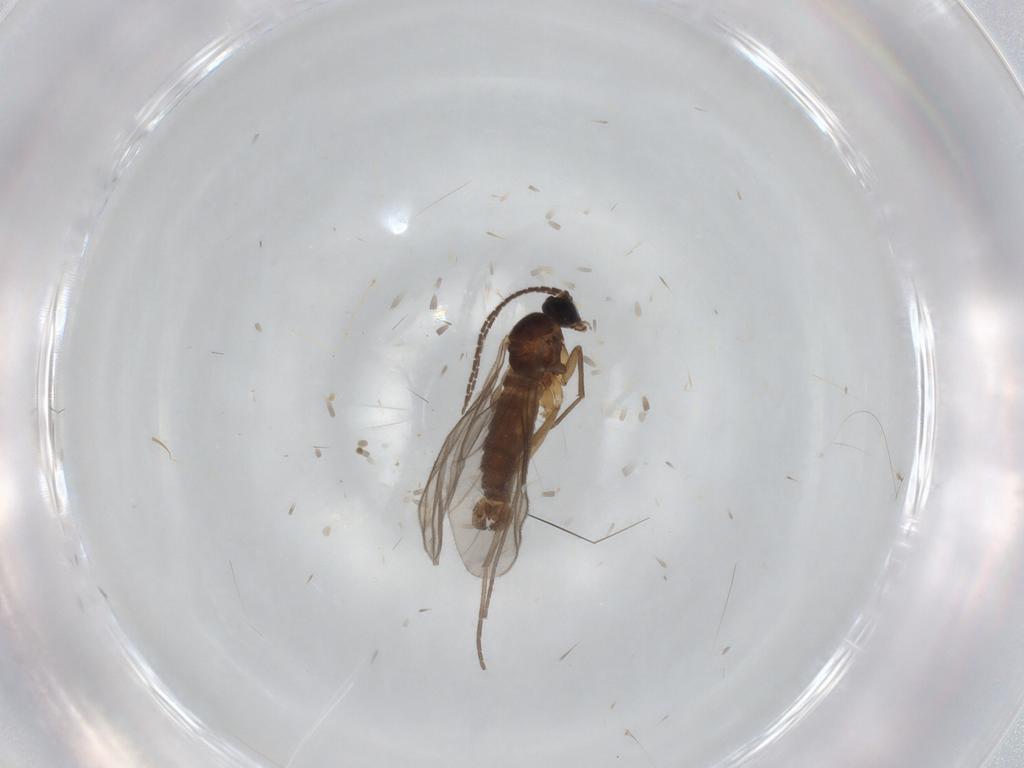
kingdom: Animalia
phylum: Arthropoda
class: Insecta
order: Diptera
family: Sciaridae
